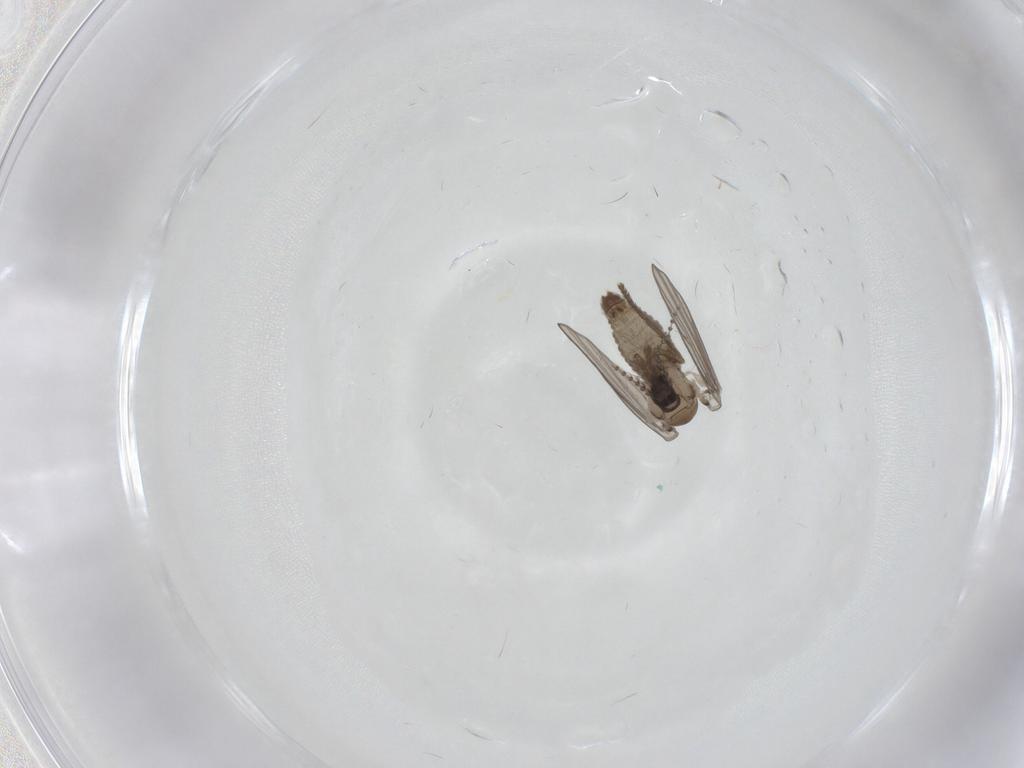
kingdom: Animalia
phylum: Arthropoda
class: Insecta
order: Diptera
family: Psychodidae
